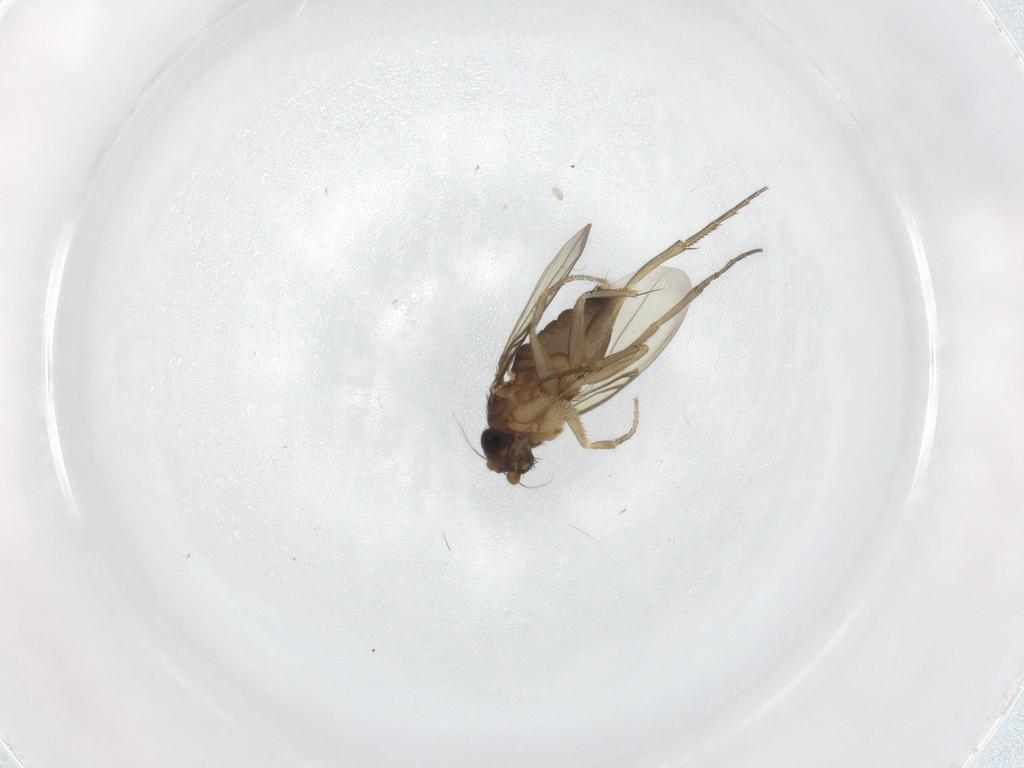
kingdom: Animalia
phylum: Arthropoda
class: Insecta
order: Diptera
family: Phoridae
